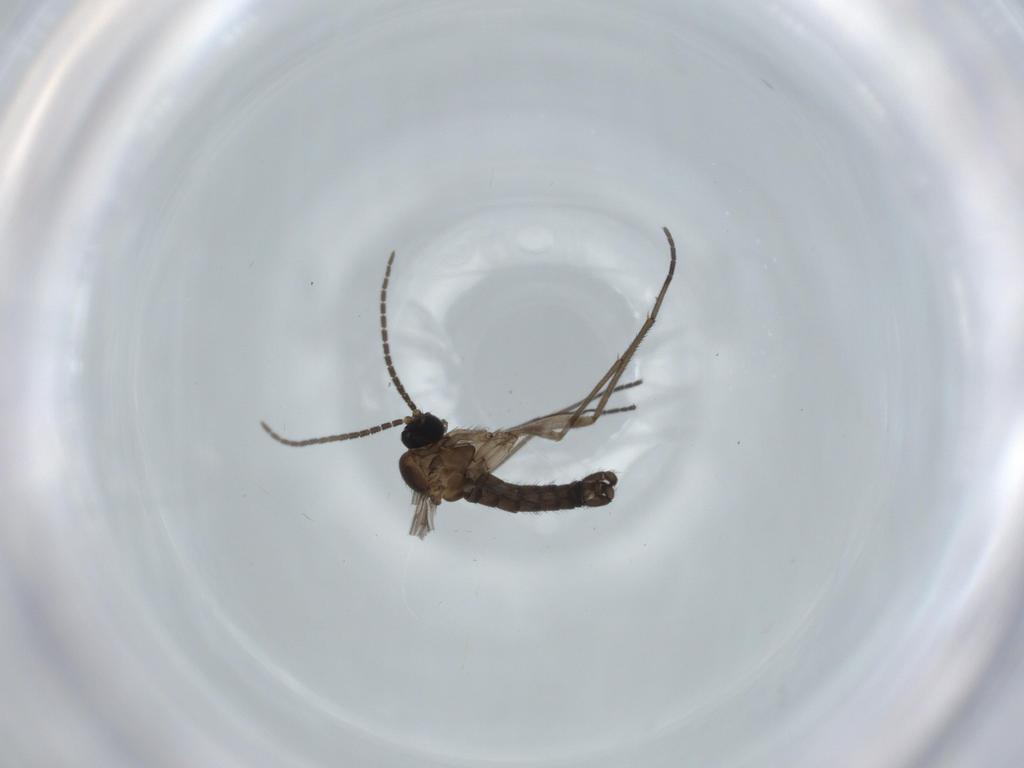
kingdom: Animalia
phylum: Arthropoda
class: Insecta
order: Diptera
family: Sciaridae
